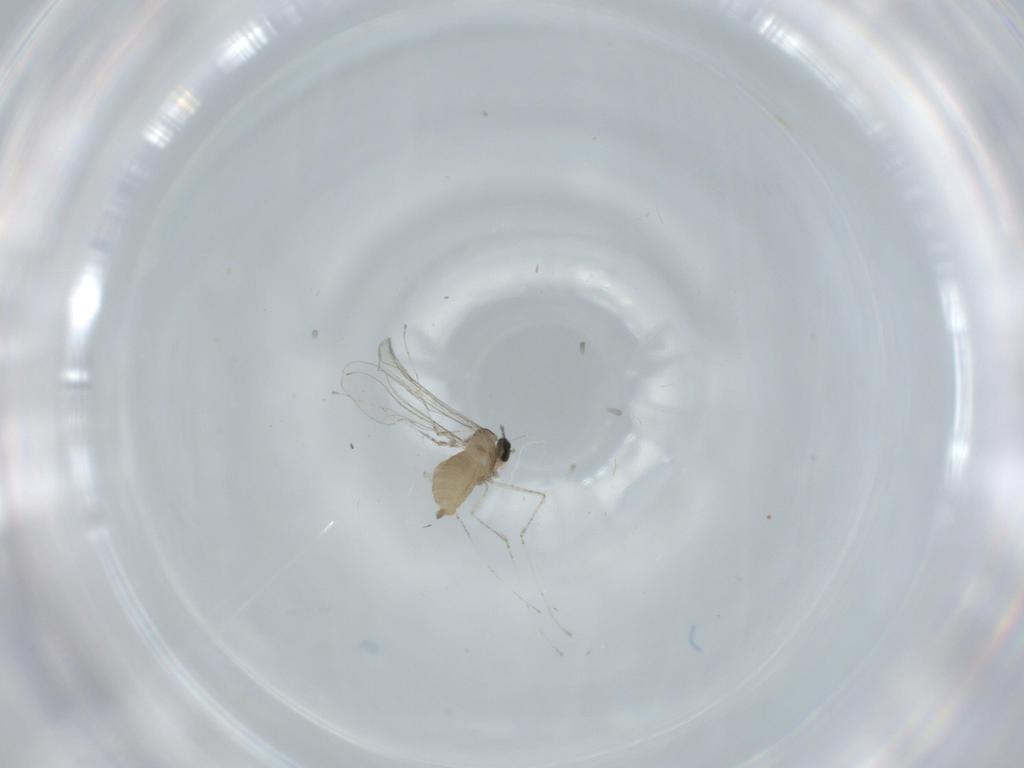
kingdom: Animalia
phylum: Arthropoda
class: Insecta
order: Diptera
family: Cecidomyiidae
